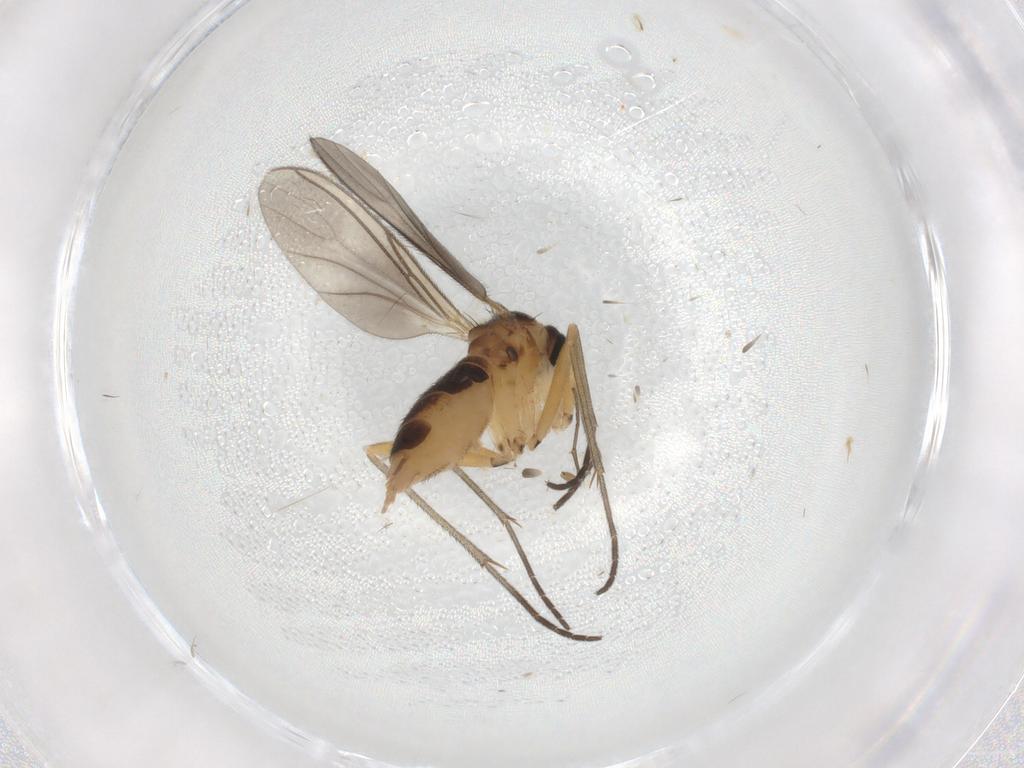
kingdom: Animalia
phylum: Arthropoda
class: Insecta
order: Diptera
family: Sciaridae
